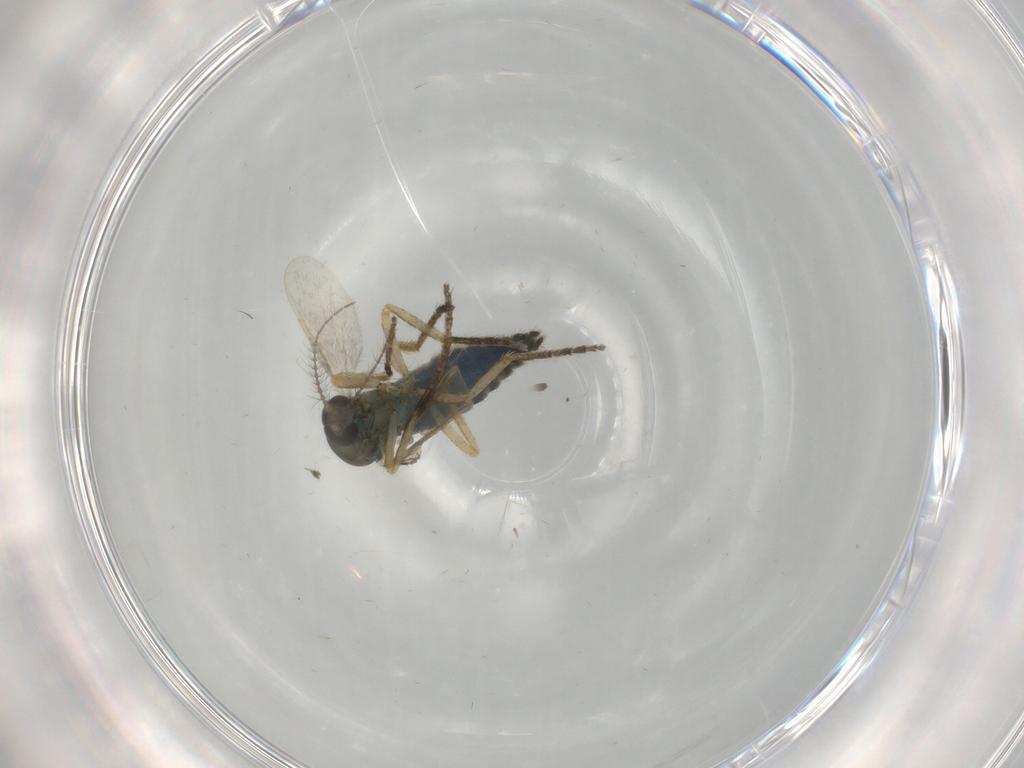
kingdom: Animalia
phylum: Arthropoda
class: Insecta
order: Diptera
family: Ceratopogonidae
